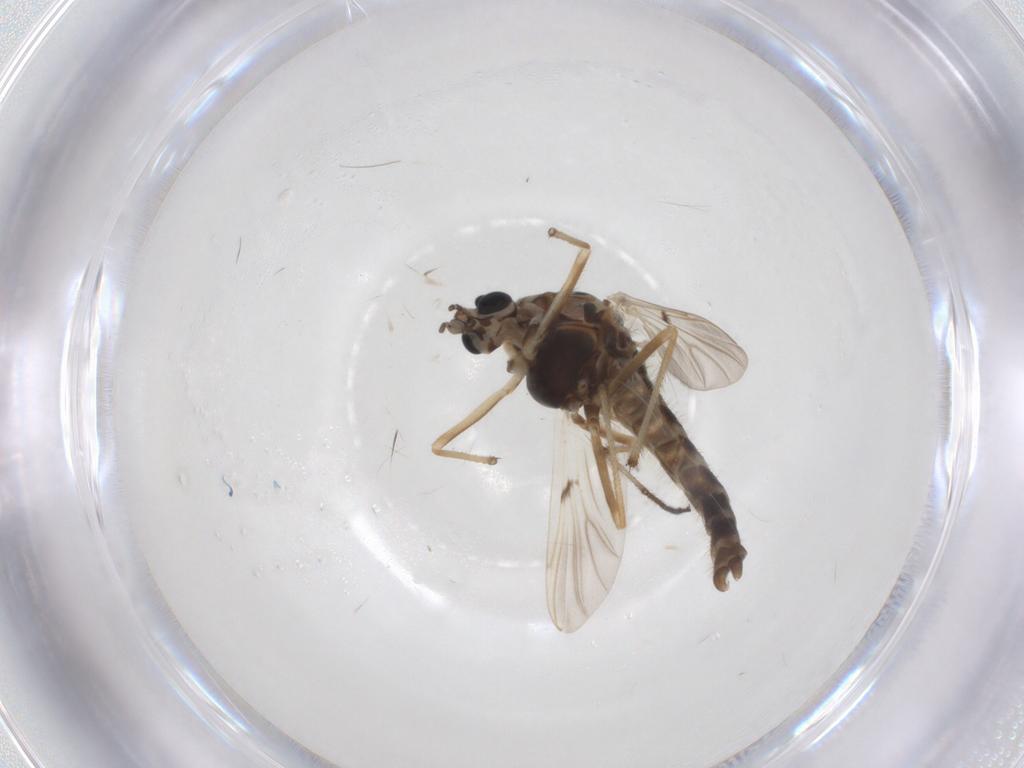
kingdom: Animalia
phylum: Arthropoda
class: Insecta
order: Diptera
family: Chironomidae
